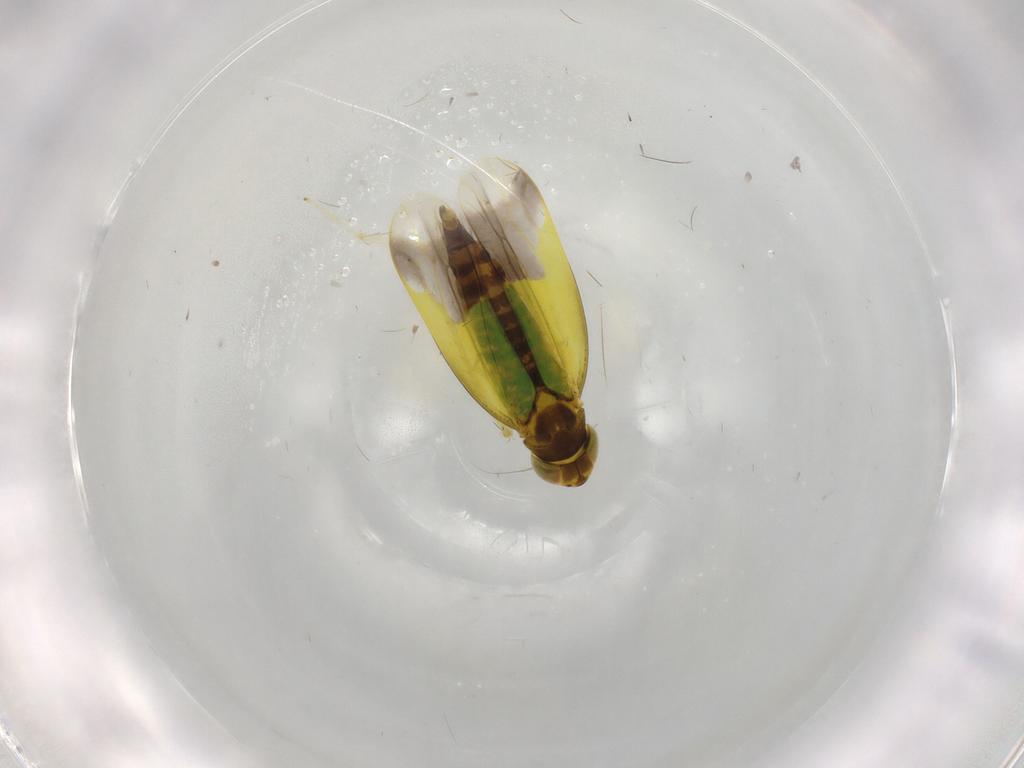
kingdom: Animalia
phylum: Arthropoda
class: Insecta
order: Hemiptera
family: Cicadellidae
